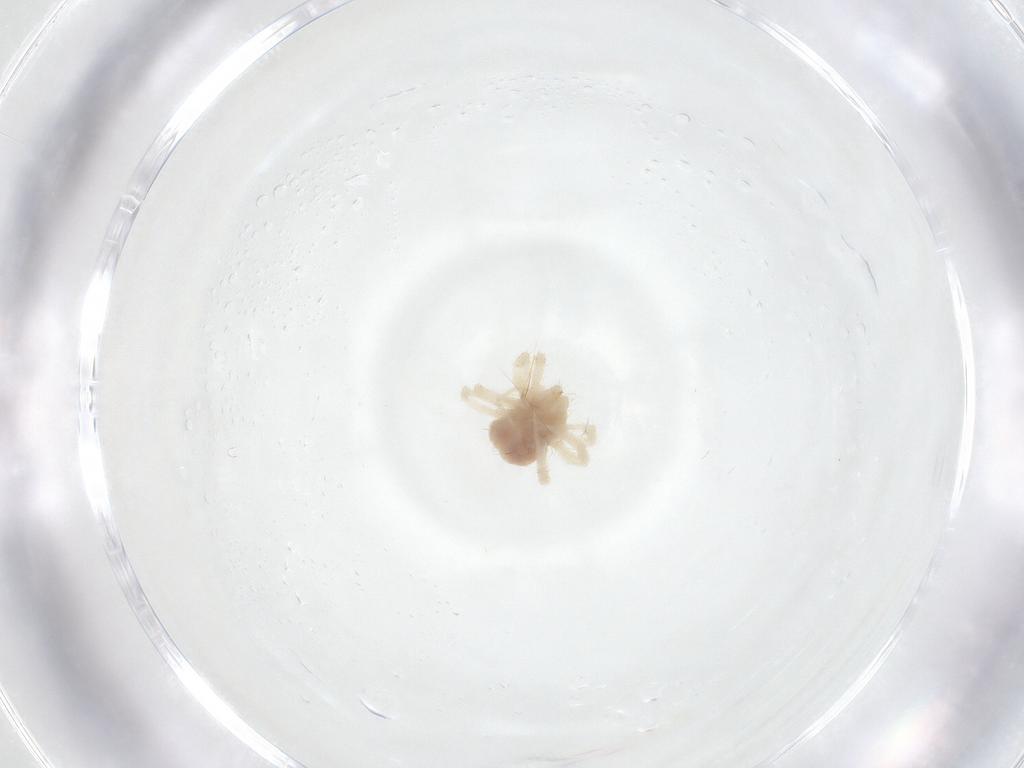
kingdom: Animalia
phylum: Arthropoda
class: Arachnida
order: Trombidiformes
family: Anystidae
